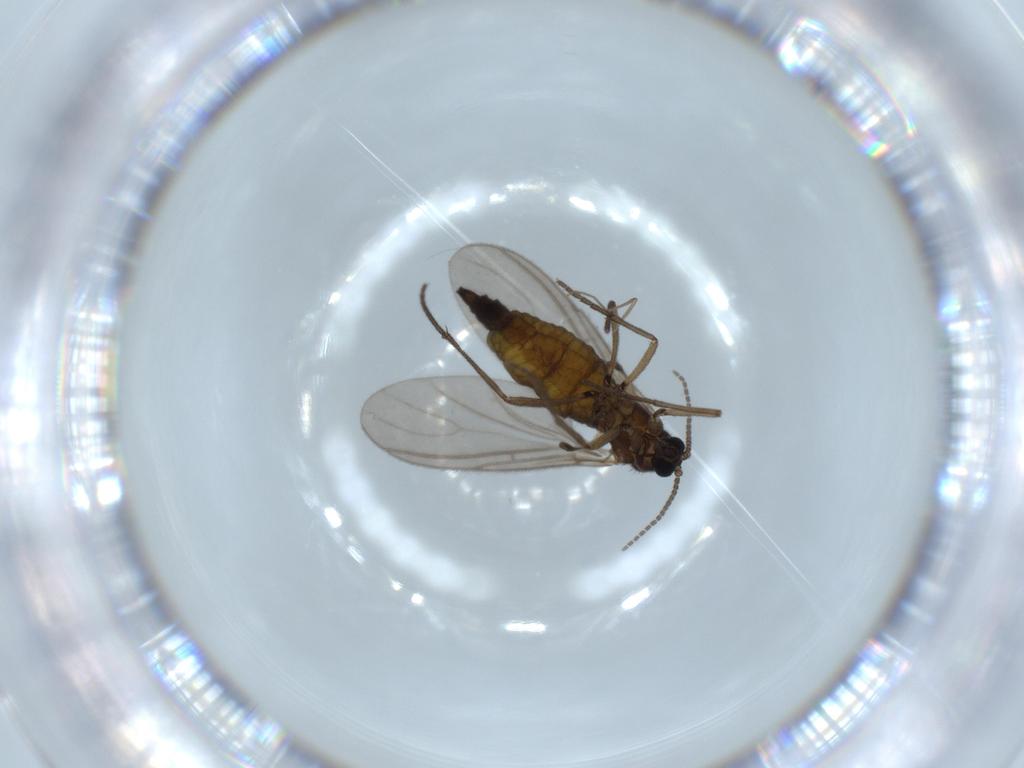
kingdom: Animalia
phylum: Arthropoda
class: Insecta
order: Diptera
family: Sciaridae
